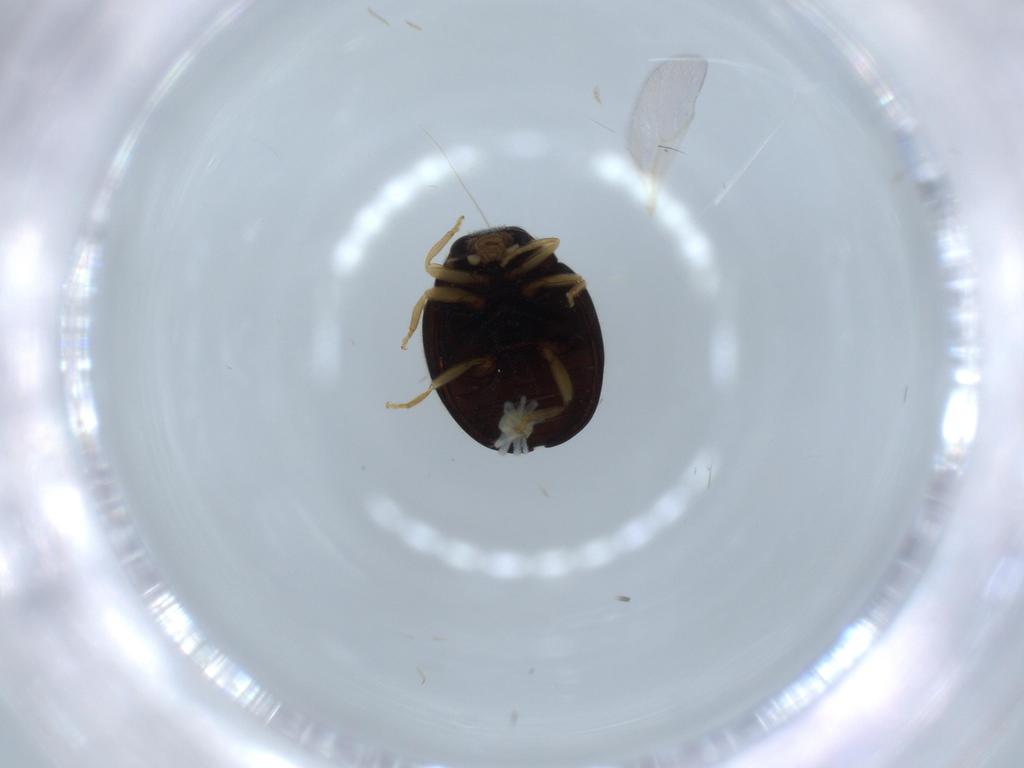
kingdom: Animalia
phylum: Arthropoda
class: Insecta
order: Coleoptera
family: Coccinellidae
